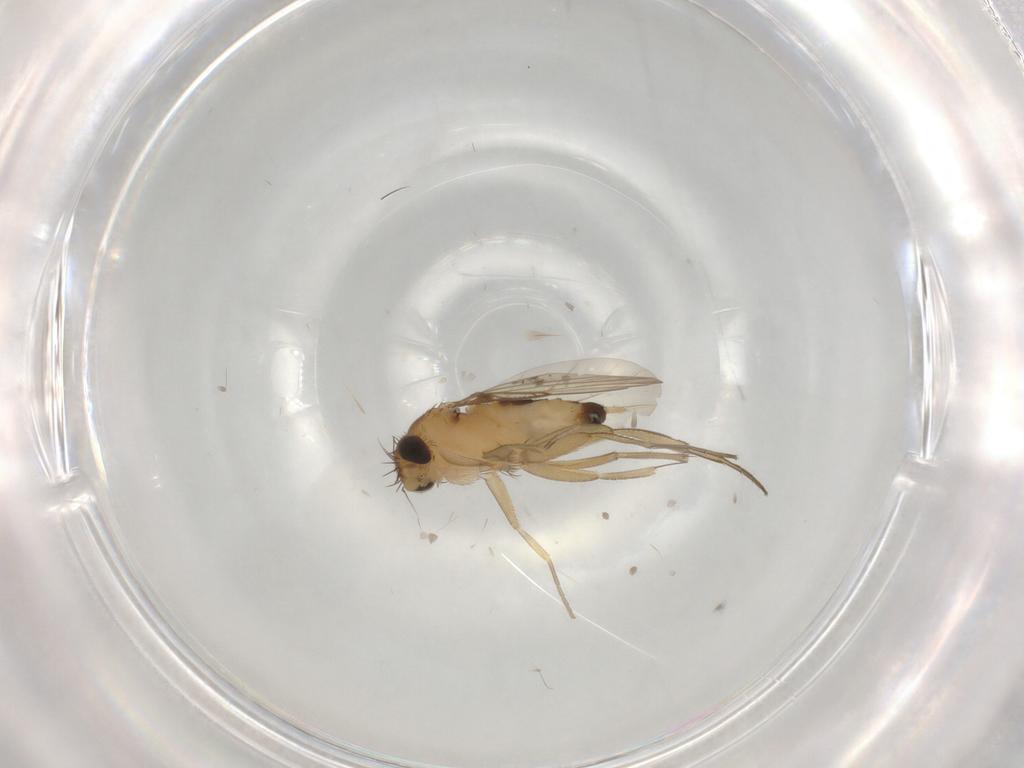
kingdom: Animalia
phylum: Arthropoda
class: Insecta
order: Diptera
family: Phoridae
